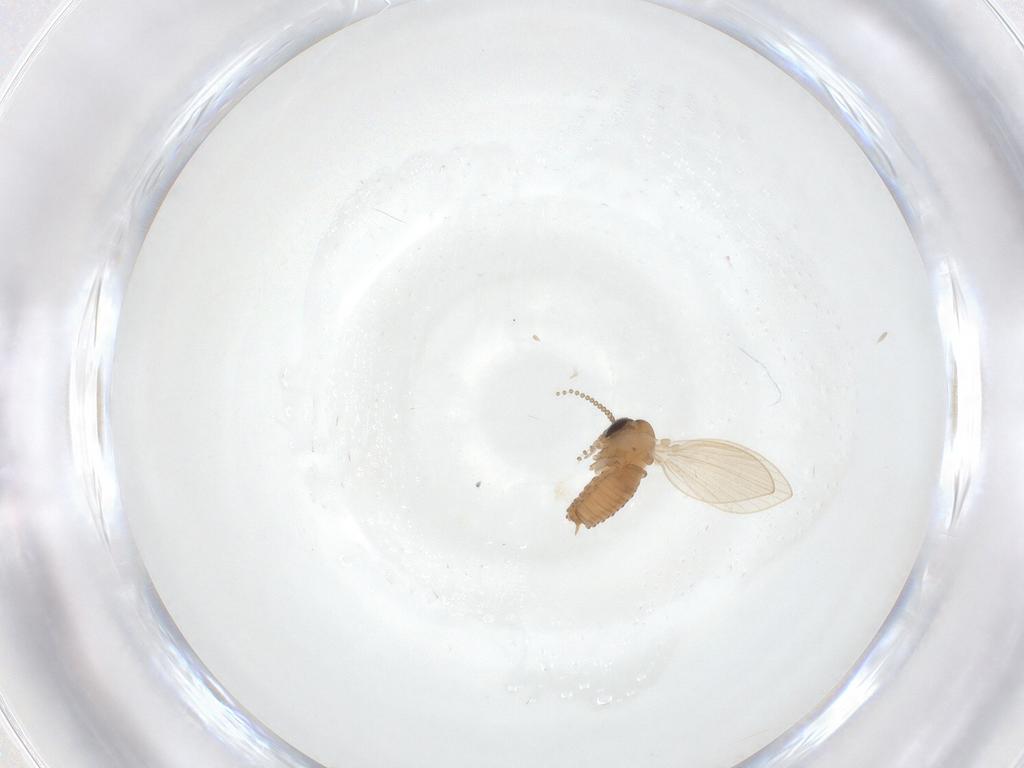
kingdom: Animalia
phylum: Arthropoda
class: Insecta
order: Diptera
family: Psychodidae
